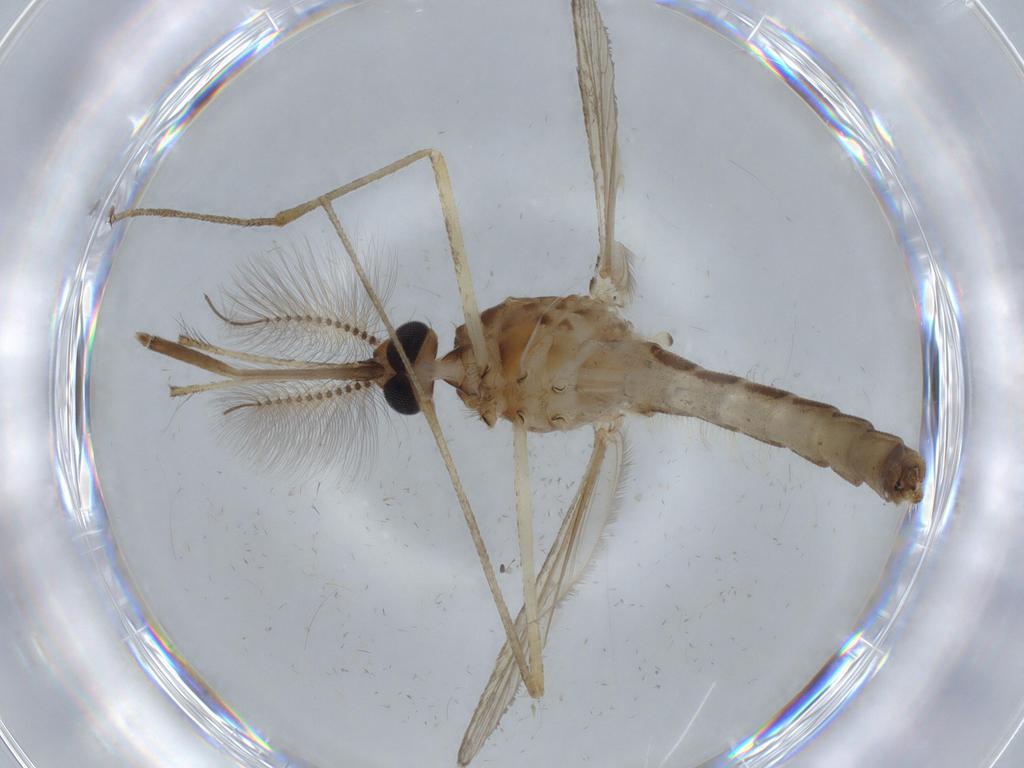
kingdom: Animalia
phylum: Arthropoda
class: Insecta
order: Diptera
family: Ceratopogonidae
